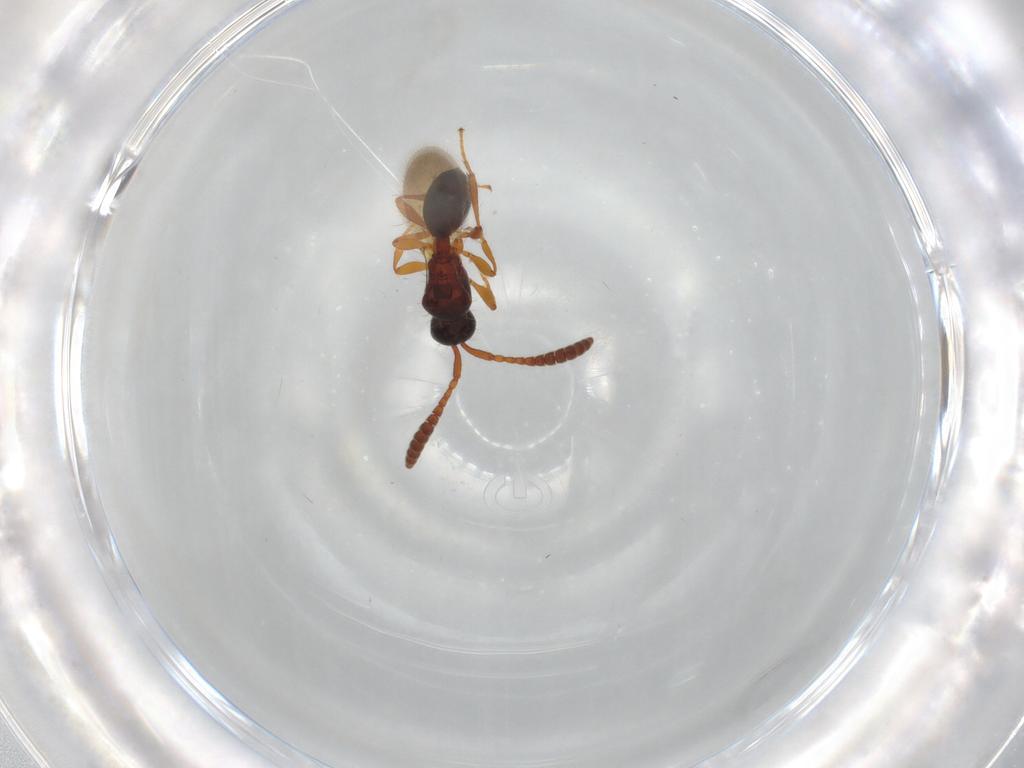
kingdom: Animalia
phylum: Arthropoda
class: Insecta
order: Hymenoptera
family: Diapriidae
